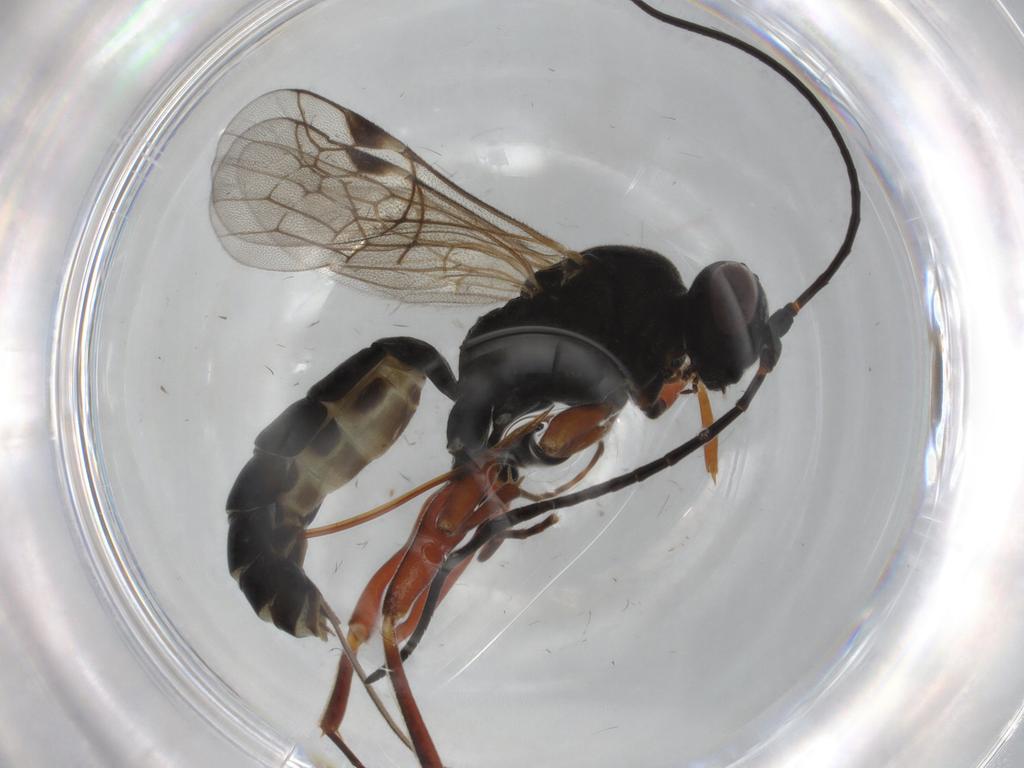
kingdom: Animalia
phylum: Arthropoda
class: Insecta
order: Hymenoptera
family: Ichneumonidae
